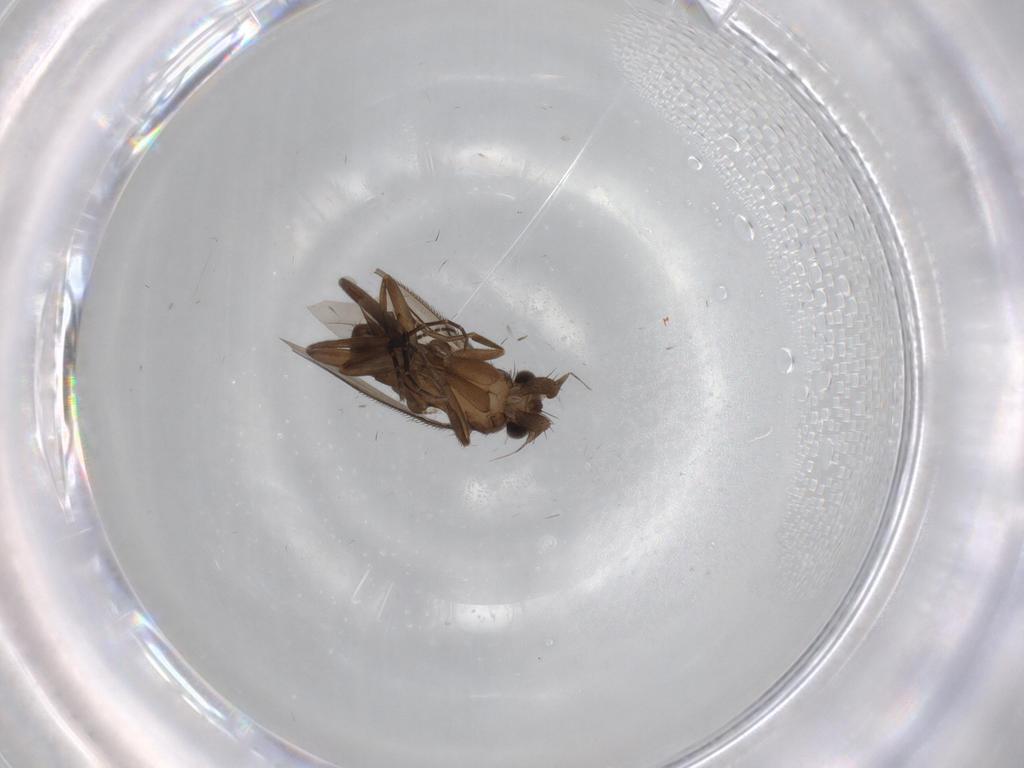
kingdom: Animalia
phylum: Arthropoda
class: Insecta
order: Diptera
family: Phoridae
